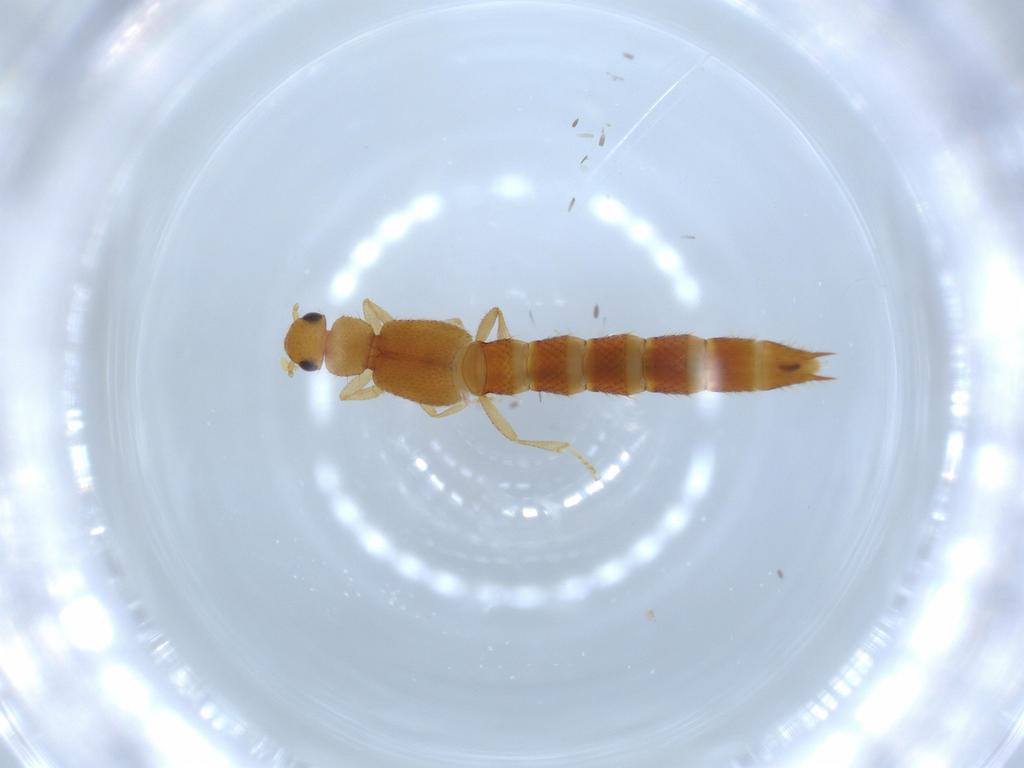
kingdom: Animalia
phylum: Arthropoda
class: Insecta
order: Coleoptera
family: Staphylinidae
